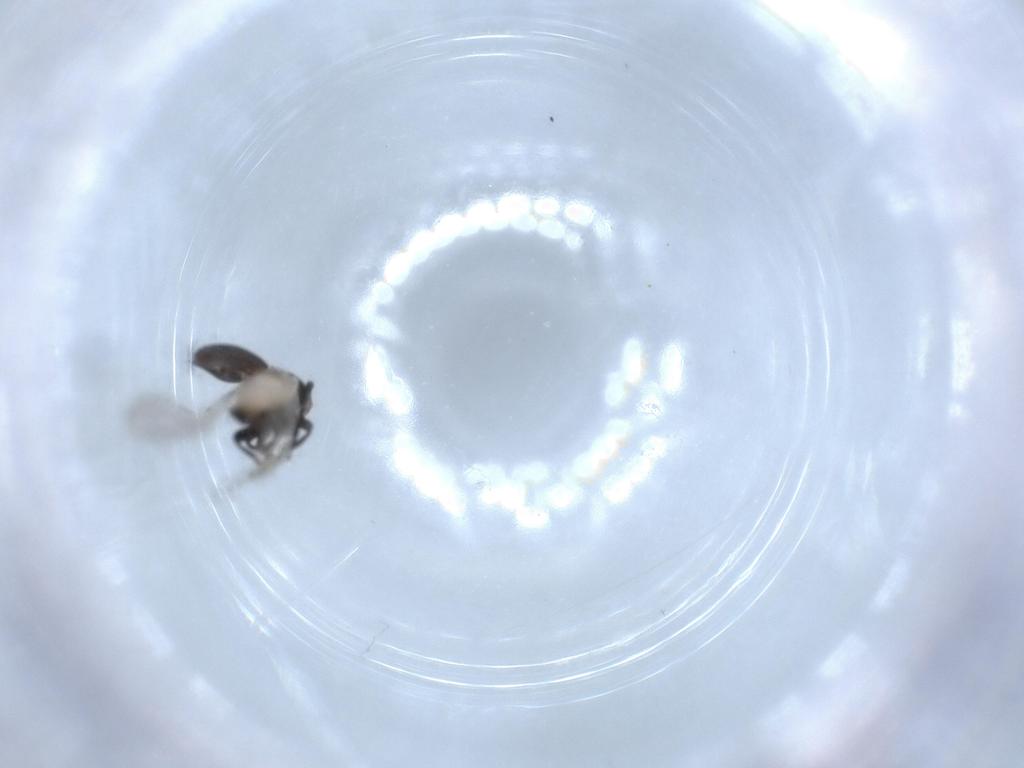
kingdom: Animalia
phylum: Arthropoda
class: Insecta
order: Coleoptera
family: Anthribidae
